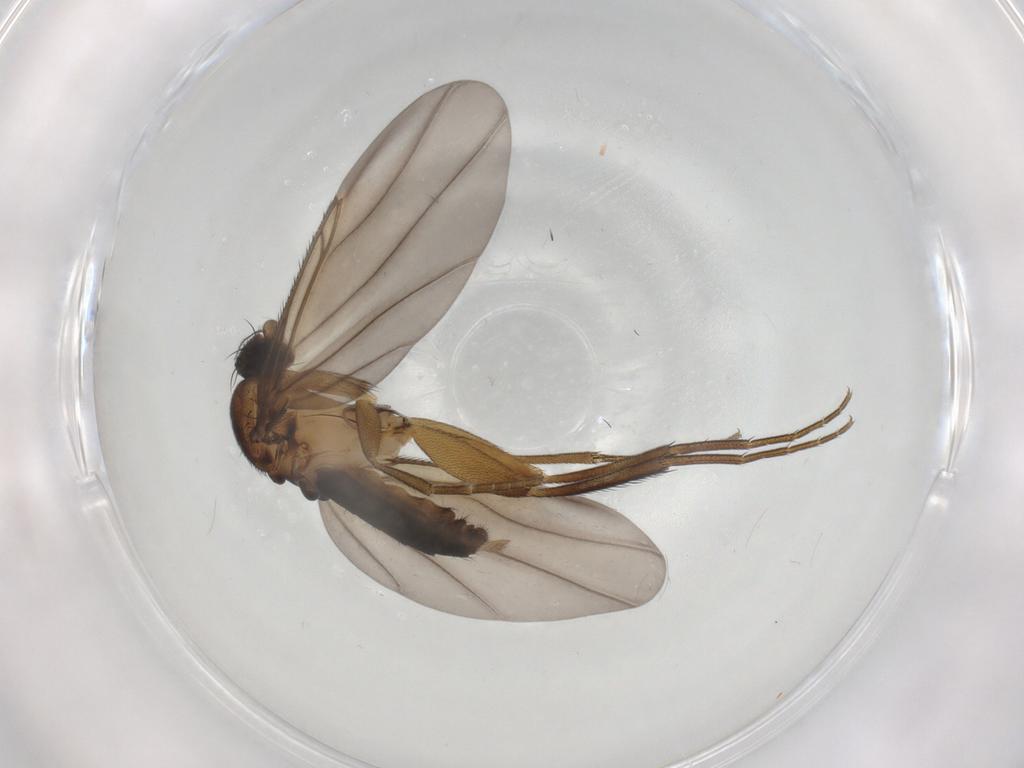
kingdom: Animalia
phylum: Arthropoda
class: Insecta
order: Diptera
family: Phoridae
